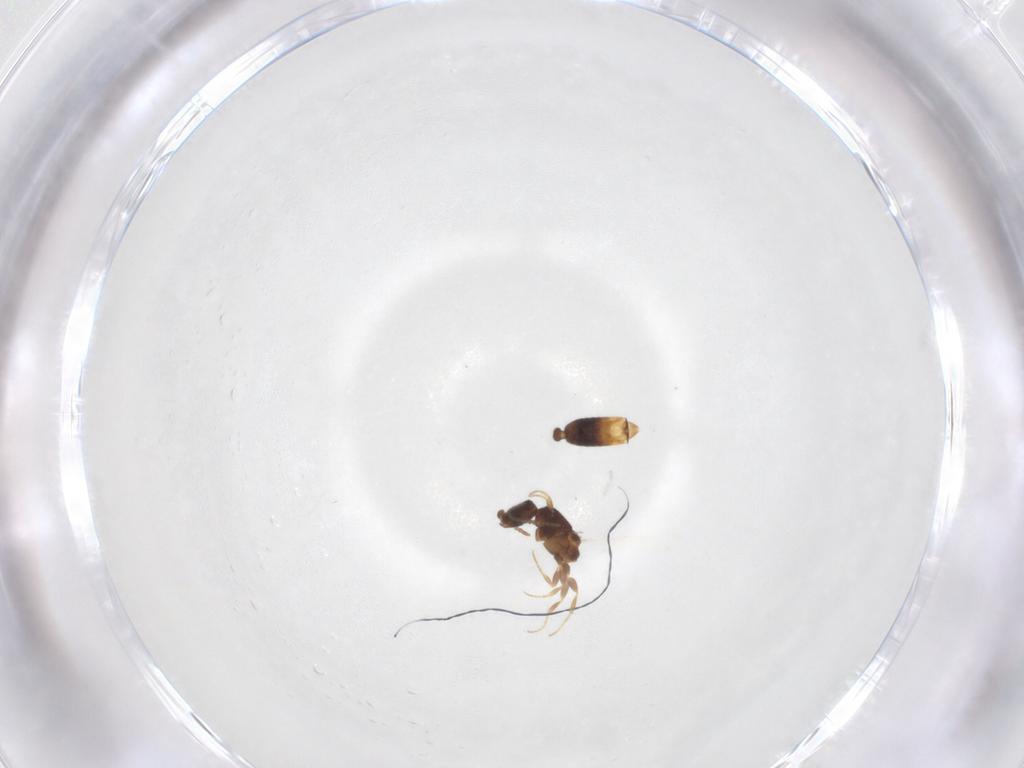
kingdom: Animalia
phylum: Arthropoda
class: Insecta
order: Hymenoptera
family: Formicidae
